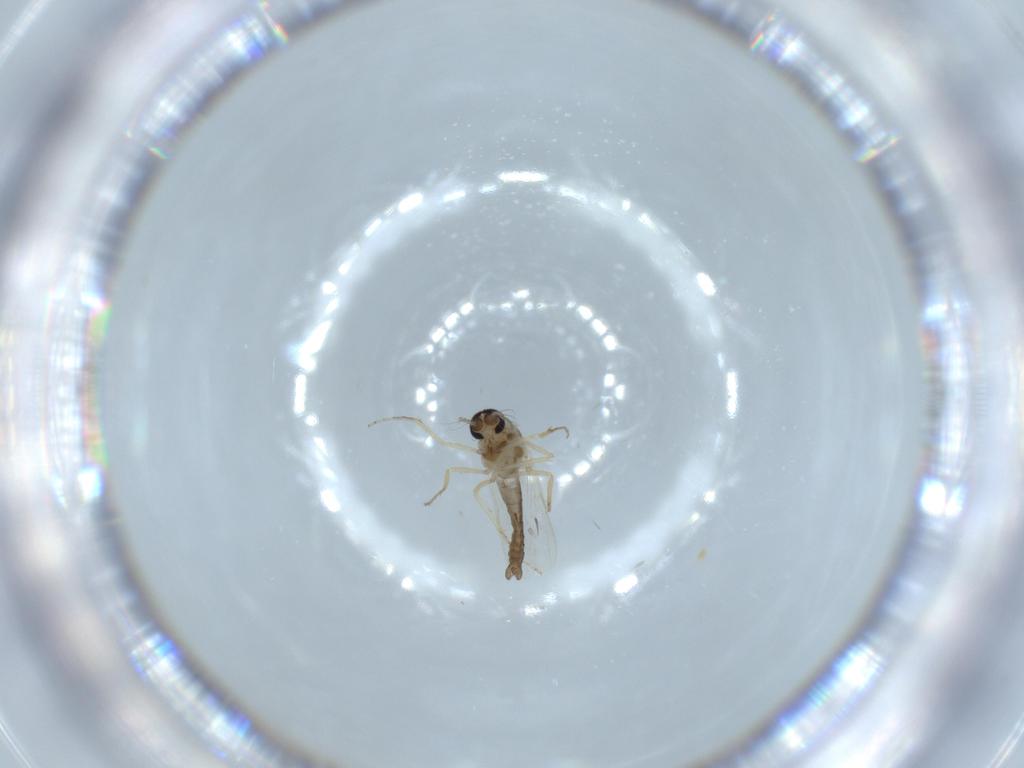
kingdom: Animalia
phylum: Arthropoda
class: Insecta
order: Diptera
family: Ceratopogonidae
